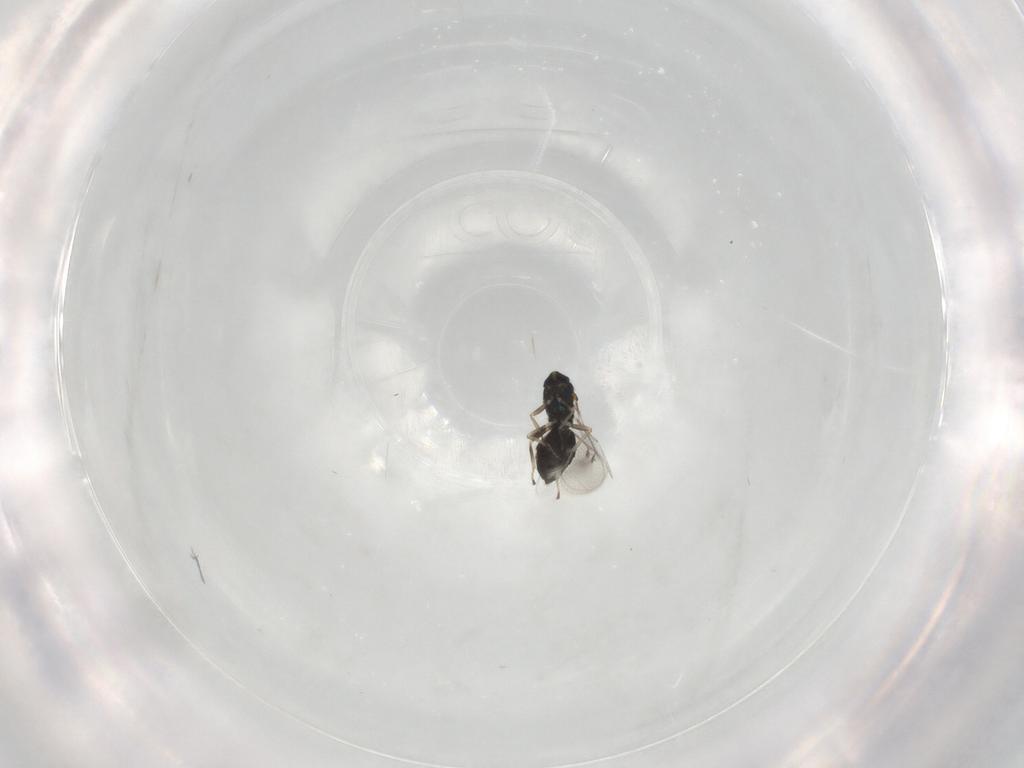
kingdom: Animalia
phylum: Arthropoda
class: Insecta
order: Hymenoptera
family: Eulophidae
